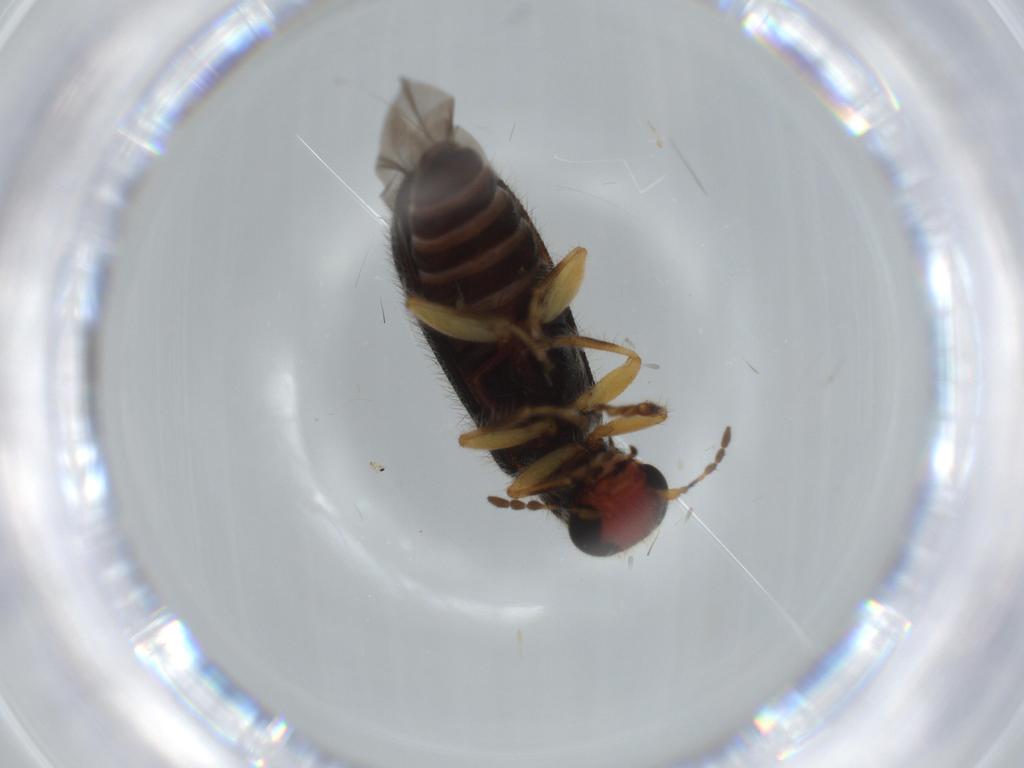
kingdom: Animalia
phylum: Arthropoda
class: Insecta
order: Coleoptera
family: Cleridae
